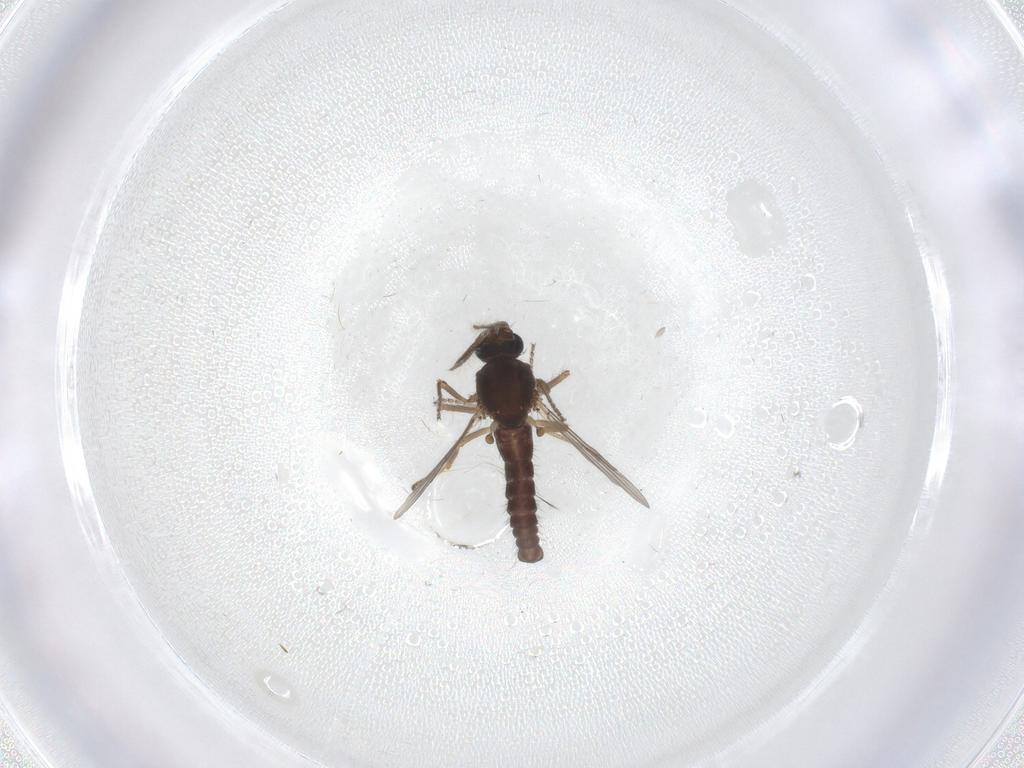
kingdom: Animalia
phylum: Arthropoda
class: Insecta
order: Diptera
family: Ceratopogonidae
